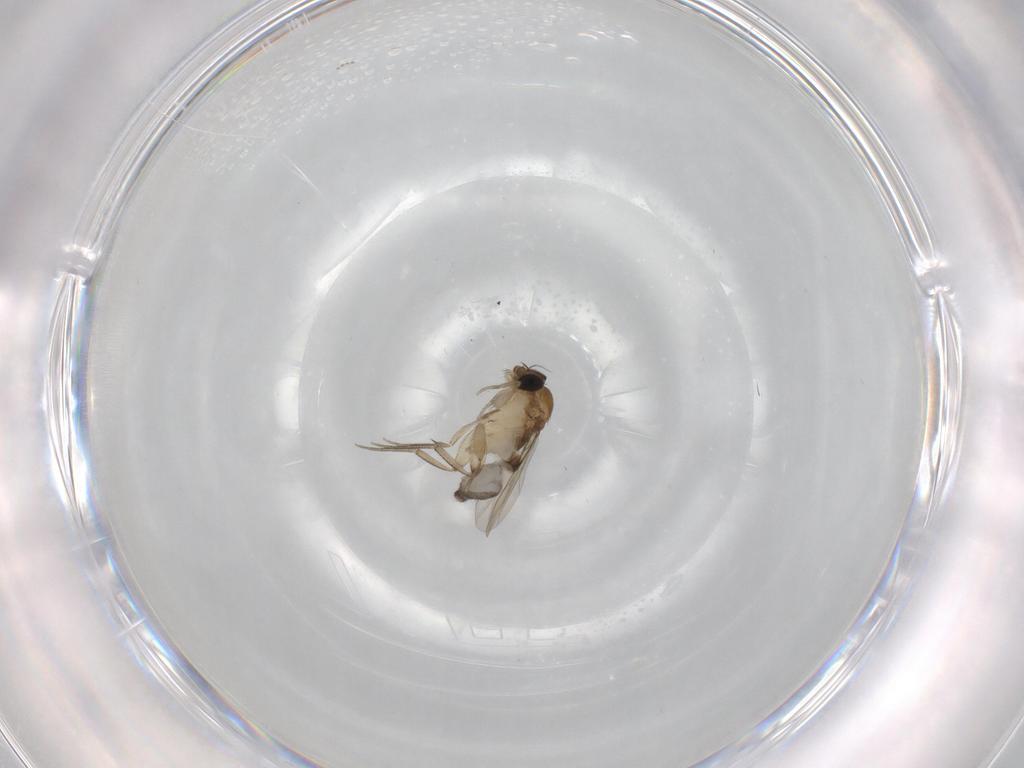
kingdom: Animalia
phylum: Arthropoda
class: Insecta
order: Diptera
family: Phoridae
